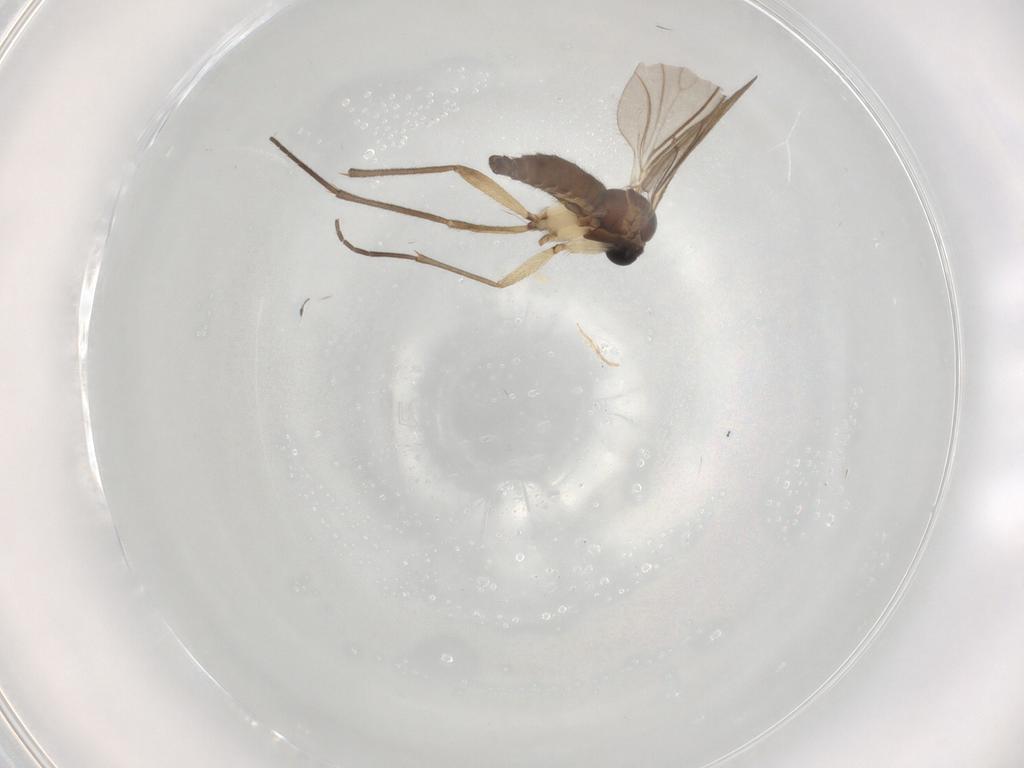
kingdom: Animalia
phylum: Arthropoda
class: Insecta
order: Diptera
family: Sciaridae
